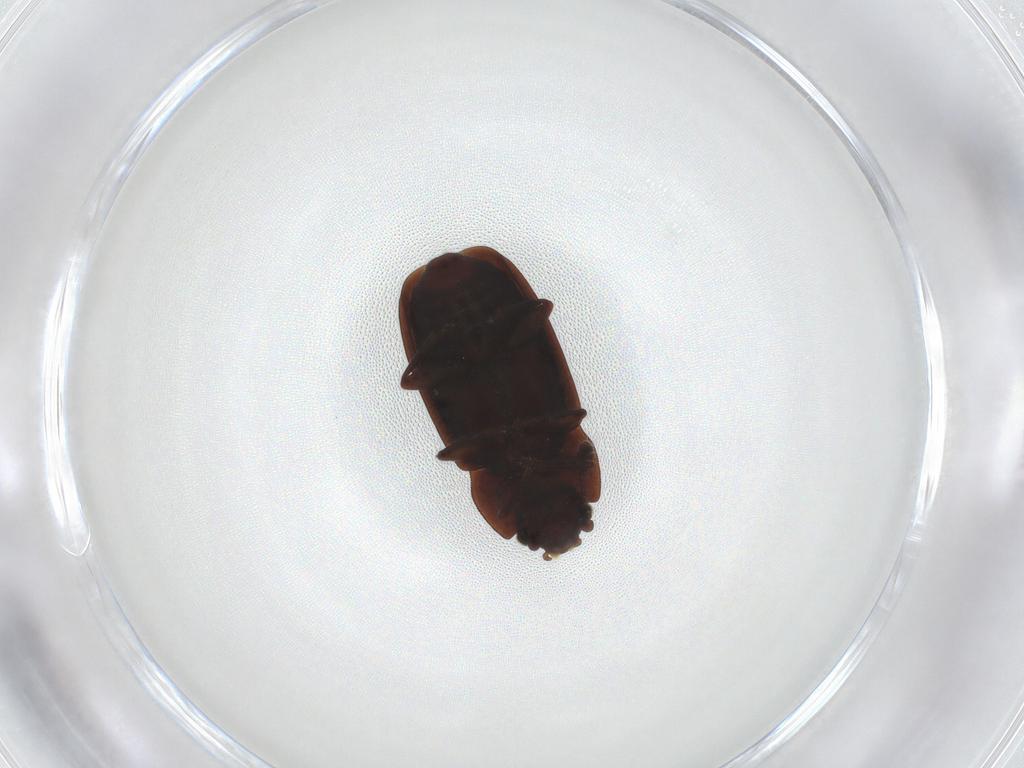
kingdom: Animalia
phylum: Arthropoda
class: Insecta
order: Coleoptera
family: Nitidulidae
